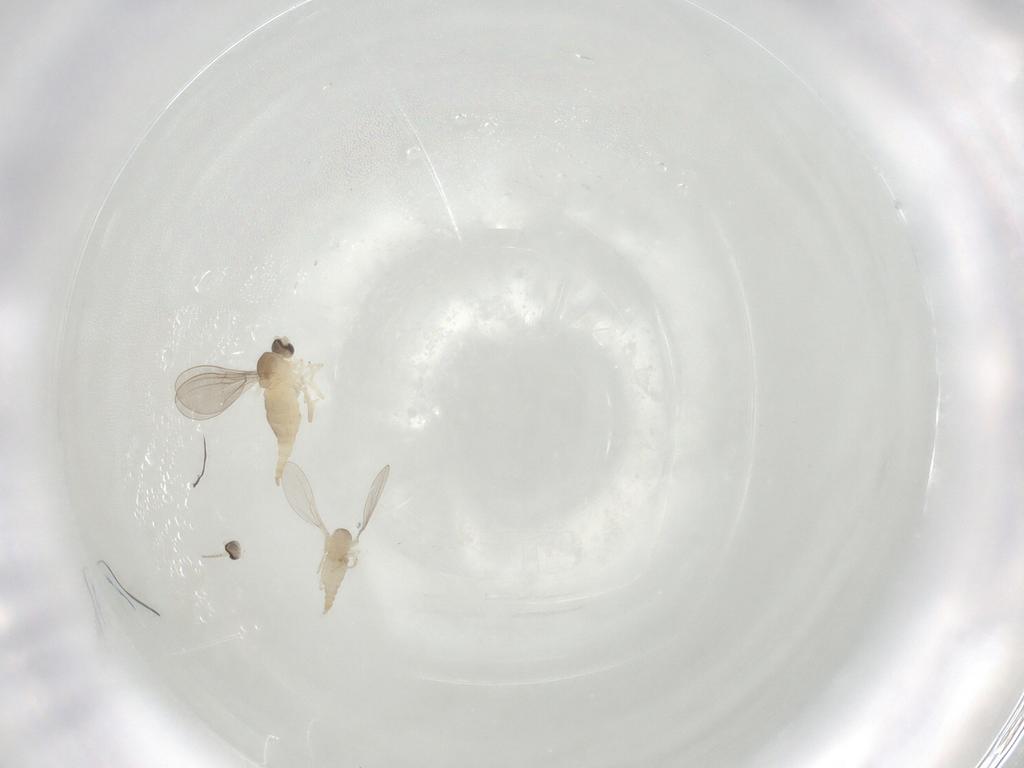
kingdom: Animalia
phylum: Arthropoda
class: Insecta
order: Diptera
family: Cecidomyiidae
